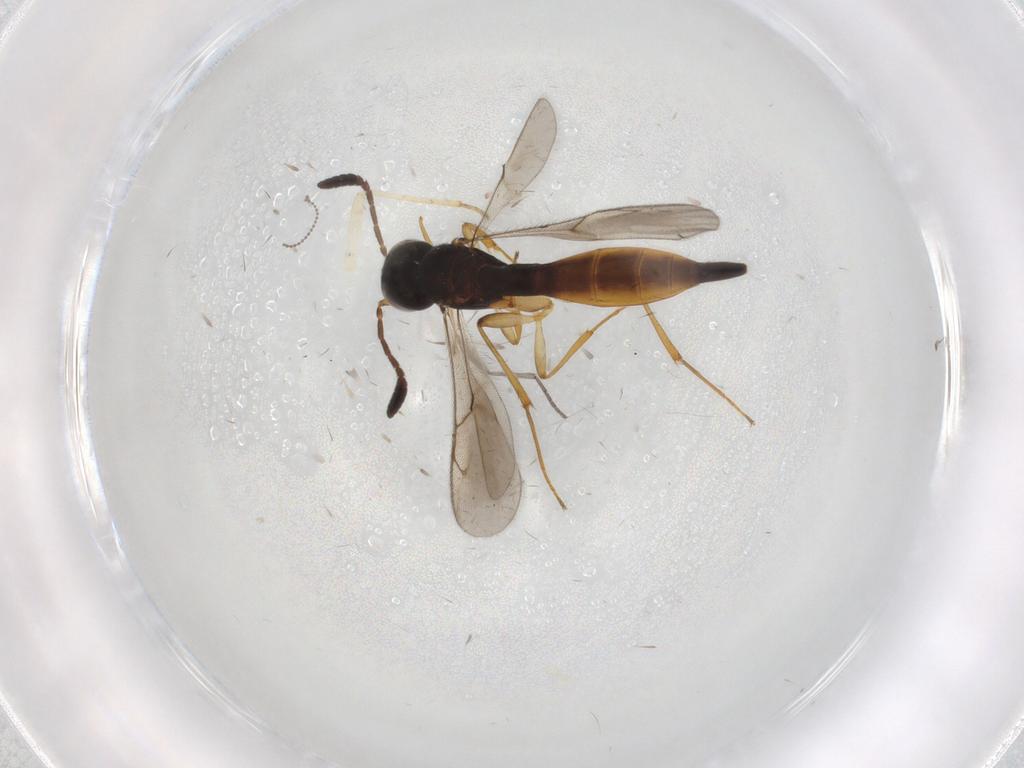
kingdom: Animalia
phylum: Arthropoda
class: Insecta
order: Hymenoptera
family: Scelionidae
